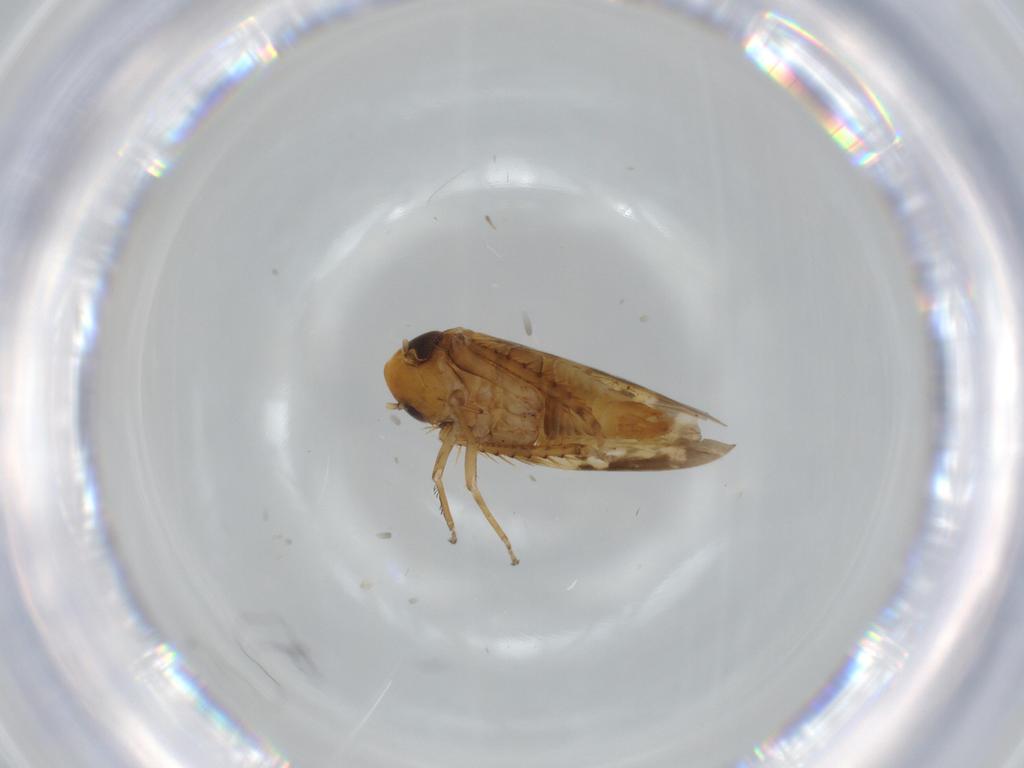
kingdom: Animalia
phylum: Arthropoda
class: Insecta
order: Hemiptera
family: Cicadellidae
